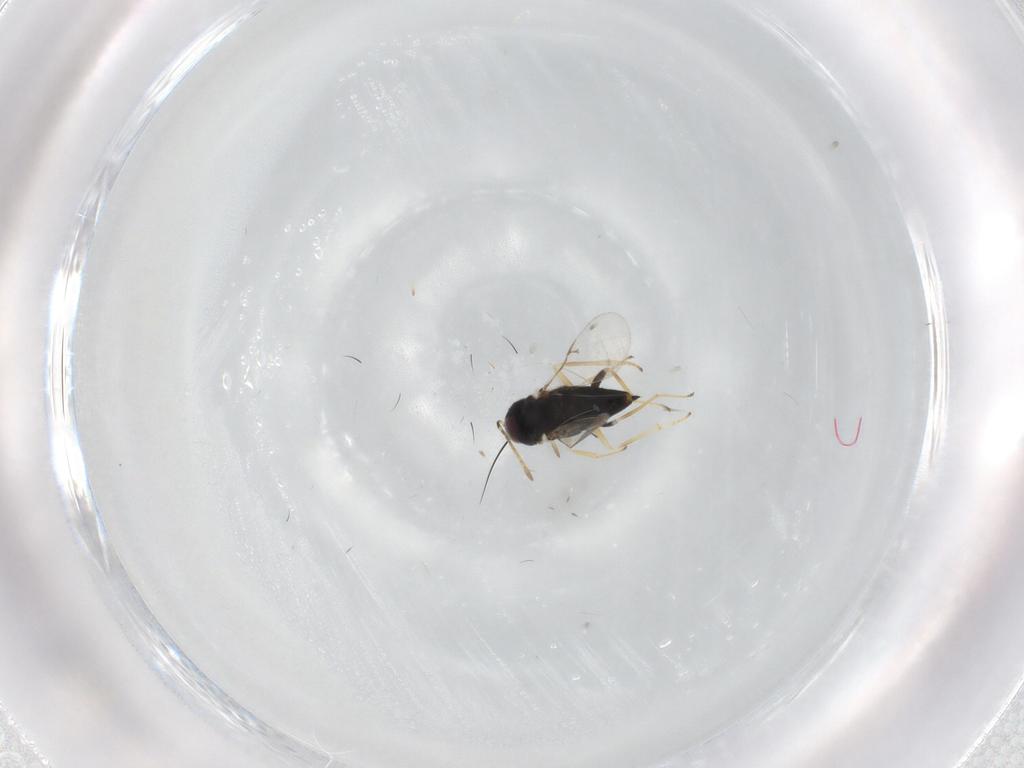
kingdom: Animalia
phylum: Arthropoda
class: Insecta
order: Hymenoptera
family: Encyrtidae
